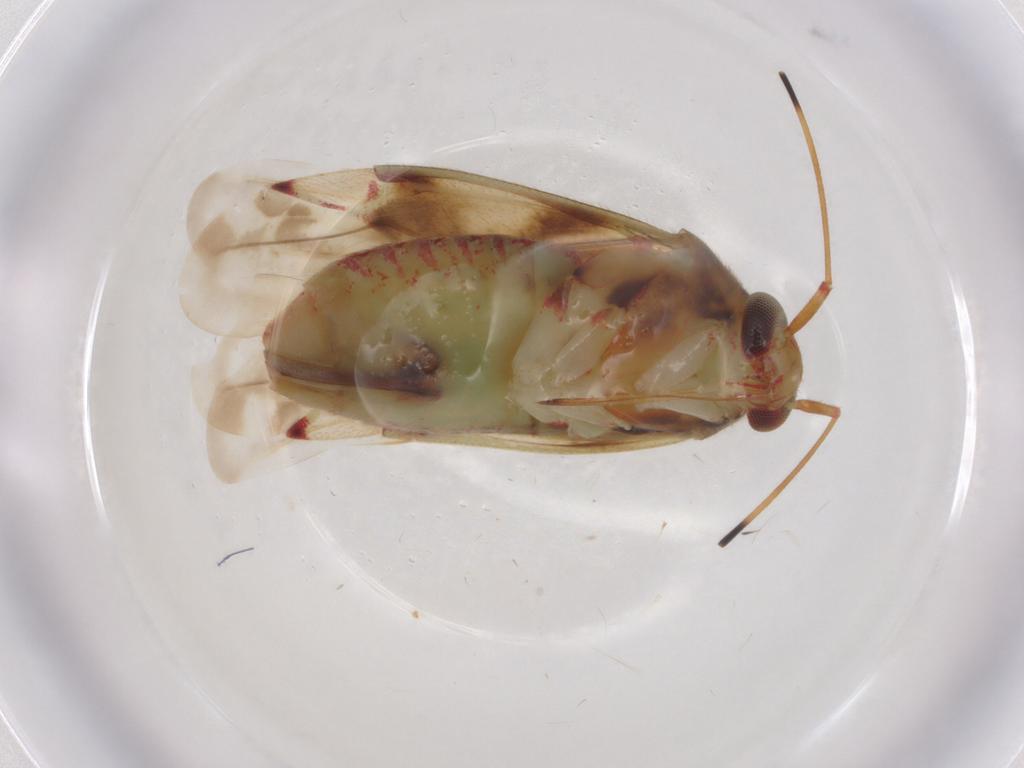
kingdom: Animalia
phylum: Arthropoda
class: Insecta
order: Hemiptera
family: Miridae
